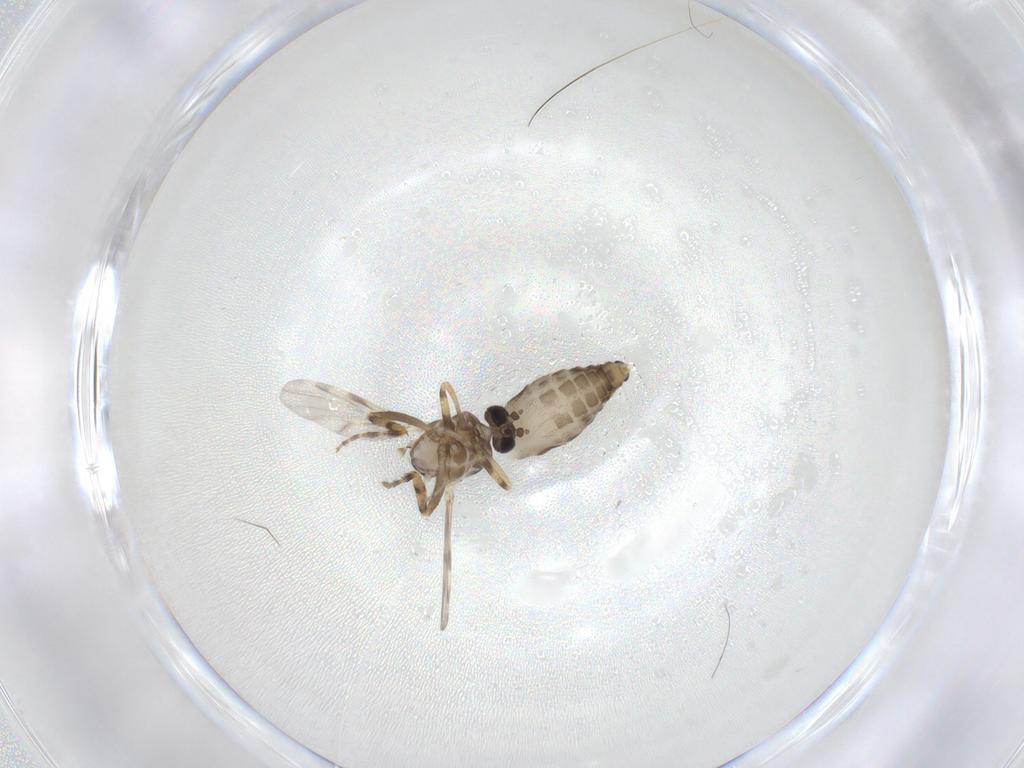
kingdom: Animalia
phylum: Arthropoda
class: Insecta
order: Diptera
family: Ceratopogonidae
